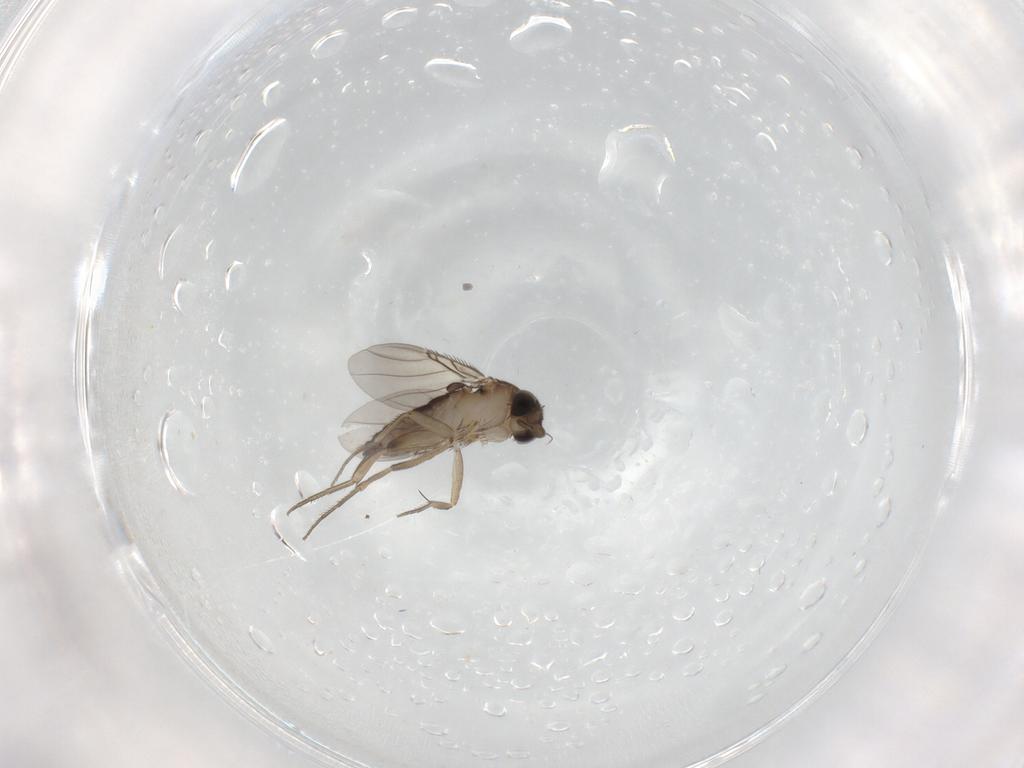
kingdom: Animalia
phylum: Arthropoda
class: Insecta
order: Diptera
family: Phoridae
